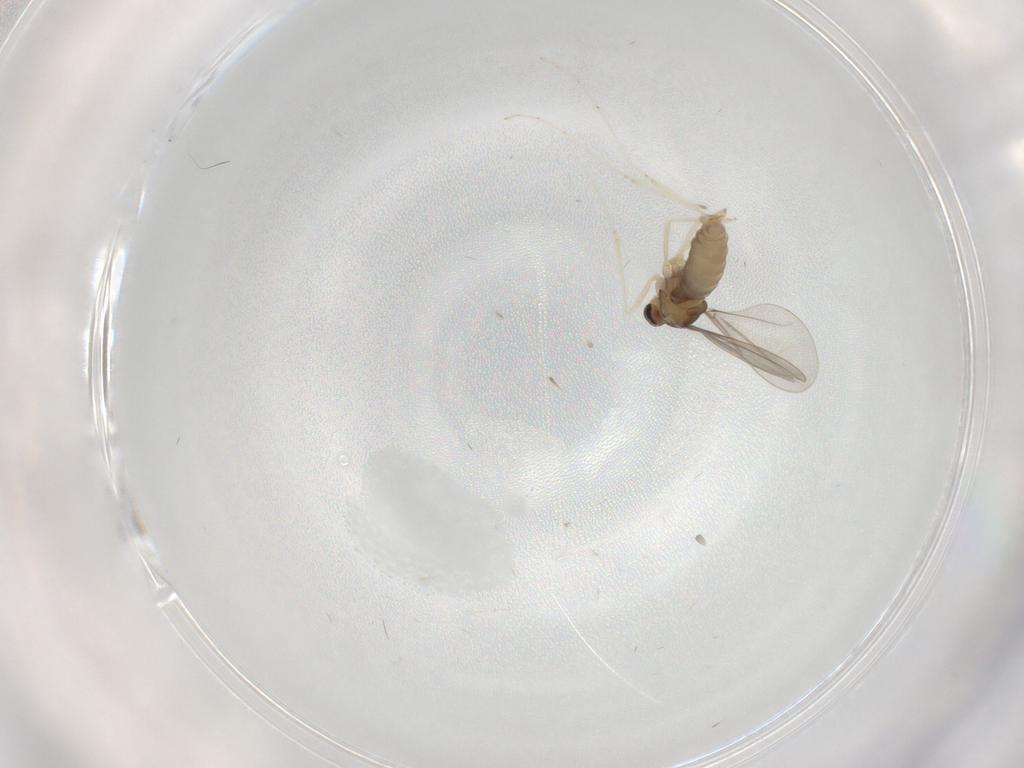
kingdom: Animalia
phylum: Arthropoda
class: Insecta
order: Diptera
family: Cecidomyiidae
